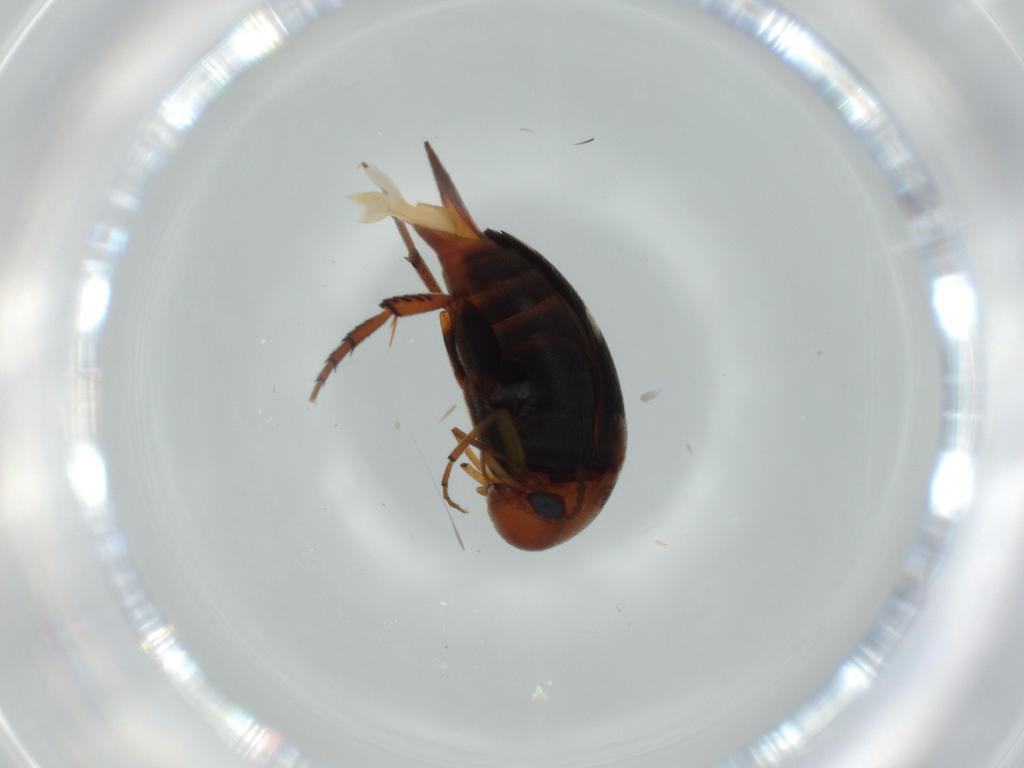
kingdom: Animalia
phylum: Arthropoda
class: Insecta
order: Coleoptera
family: Mordellidae
